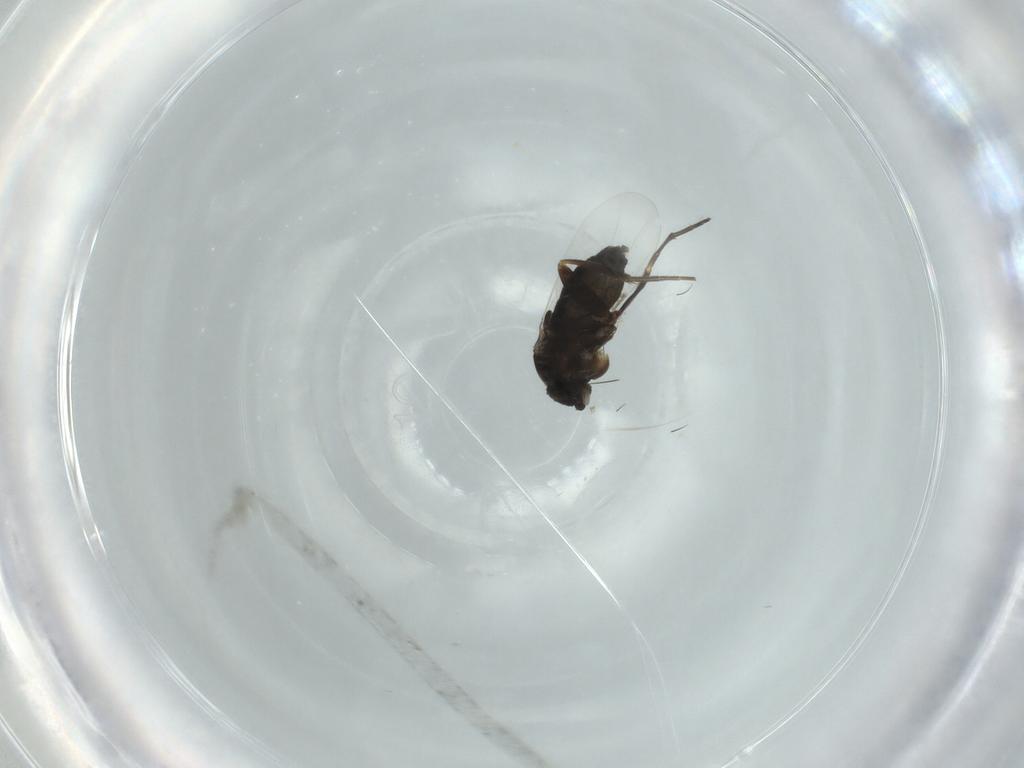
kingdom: Animalia
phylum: Arthropoda
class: Insecta
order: Diptera
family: Phoridae
